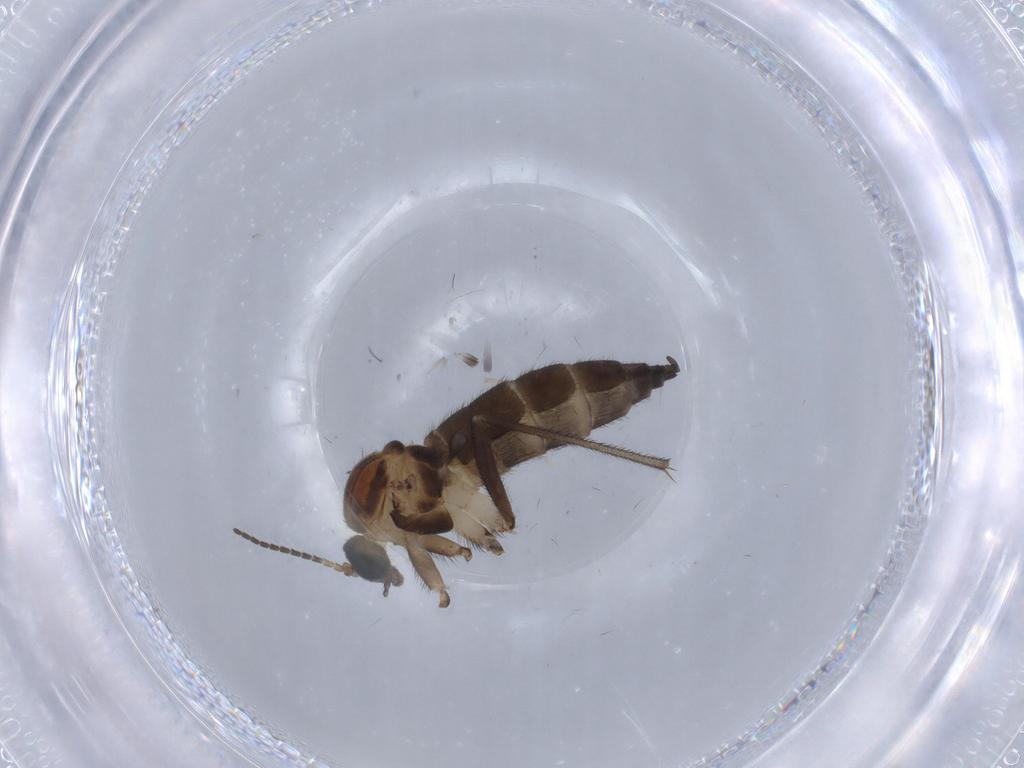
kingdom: Animalia
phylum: Arthropoda
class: Insecta
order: Diptera
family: Sciaridae
